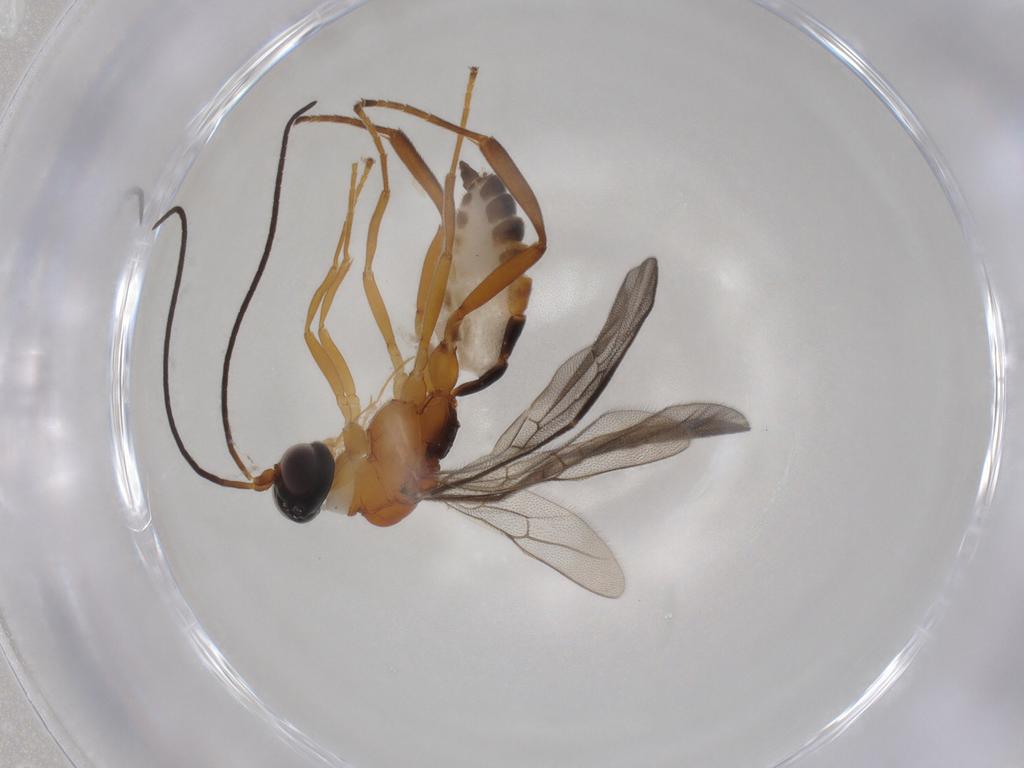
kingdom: Animalia
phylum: Arthropoda
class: Insecta
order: Hymenoptera
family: Ichneumonidae
